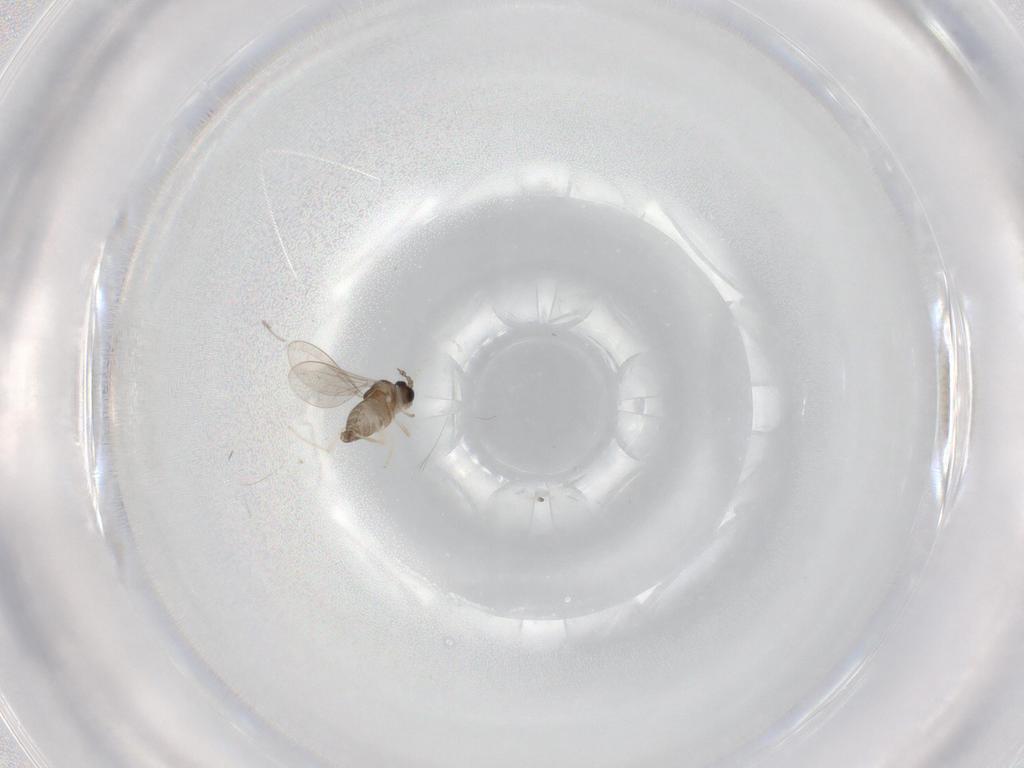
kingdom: Animalia
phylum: Arthropoda
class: Insecta
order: Diptera
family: Cecidomyiidae
